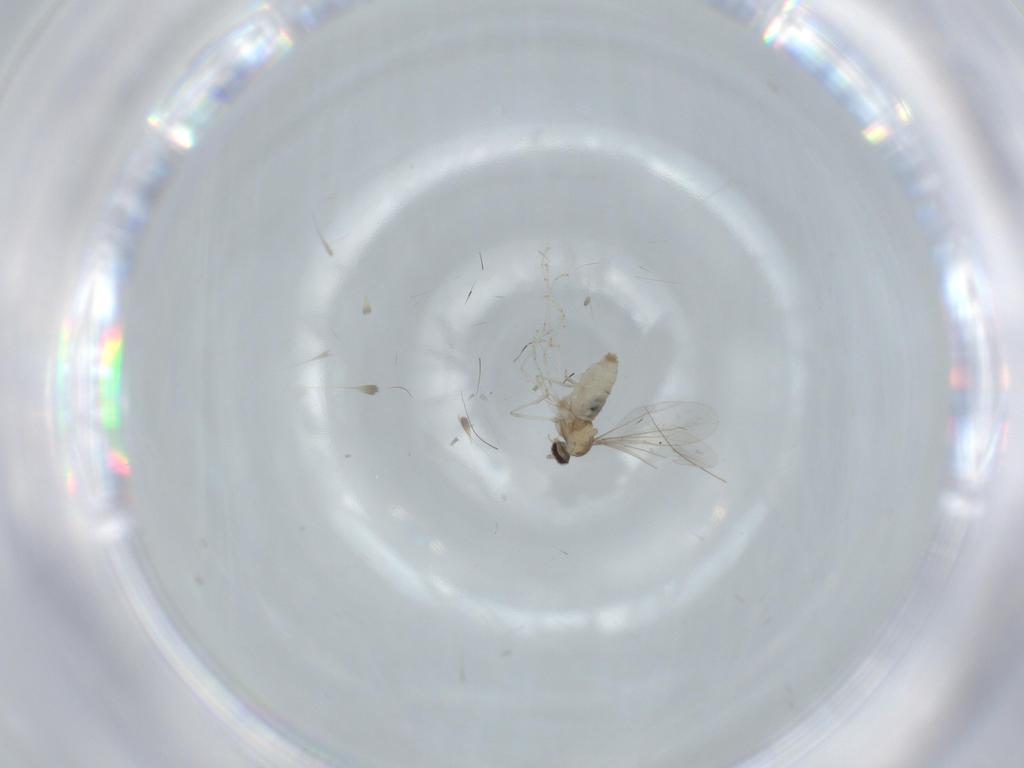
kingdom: Animalia
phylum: Arthropoda
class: Insecta
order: Diptera
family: Cecidomyiidae
